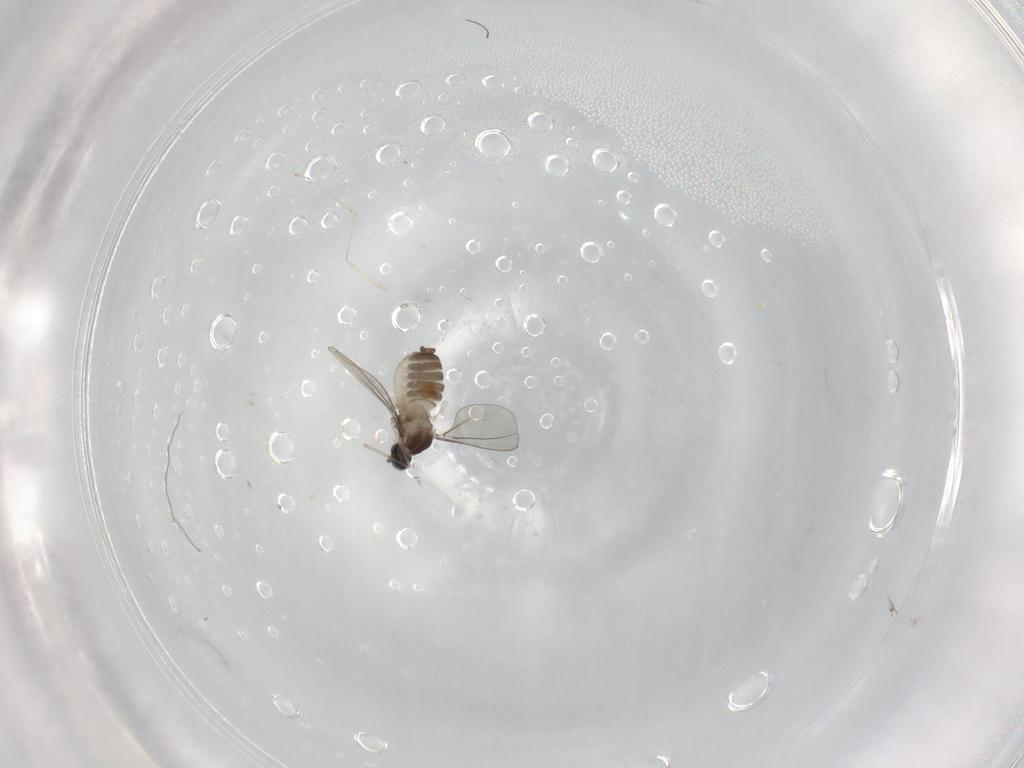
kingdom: Animalia
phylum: Arthropoda
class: Insecta
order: Diptera
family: Cecidomyiidae
